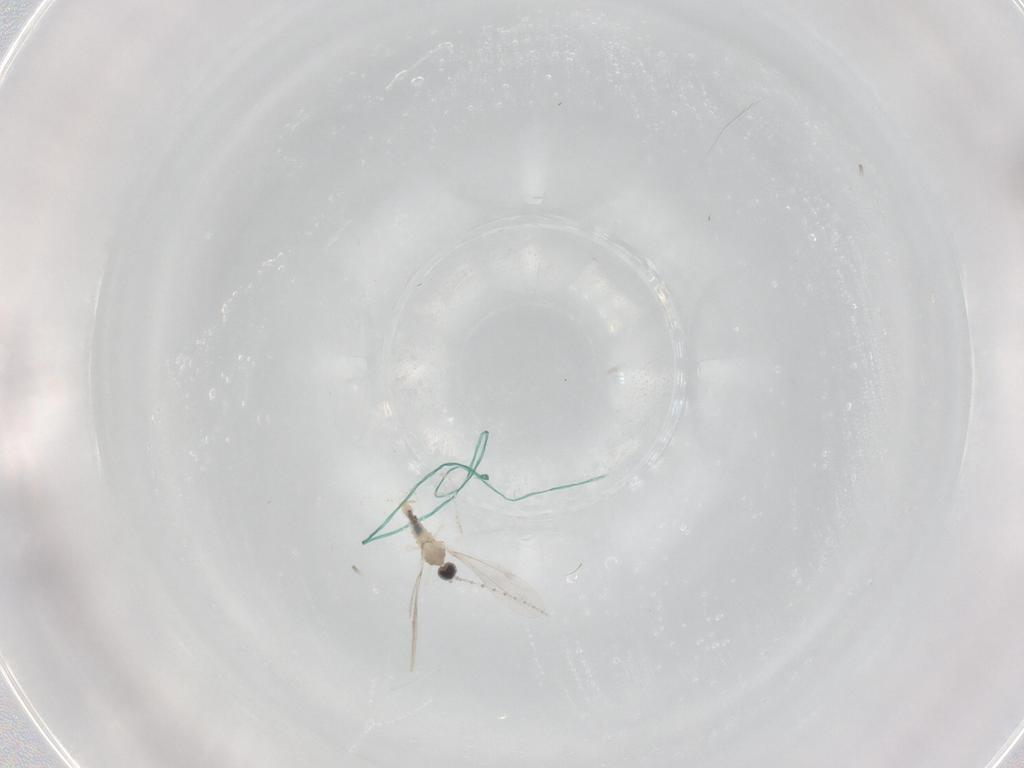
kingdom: Animalia
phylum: Arthropoda
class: Insecta
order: Diptera
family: Cecidomyiidae
